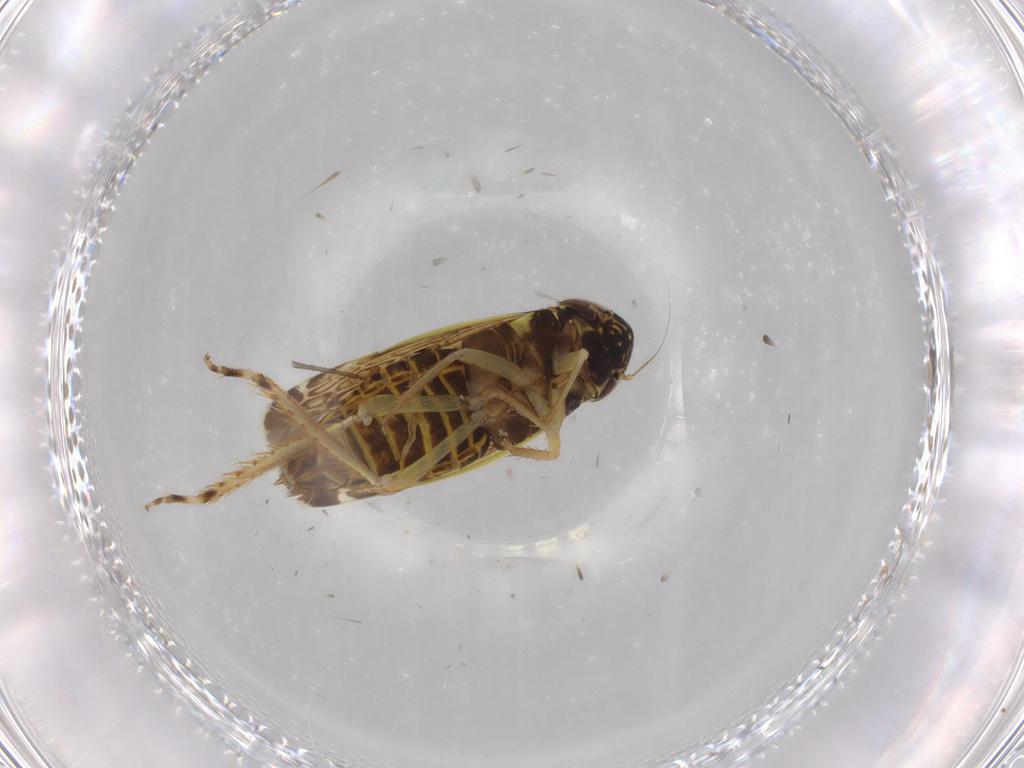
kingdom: Animalia
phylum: Arthropoda
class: Insecta
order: Hemiptera
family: Cicadellidae
